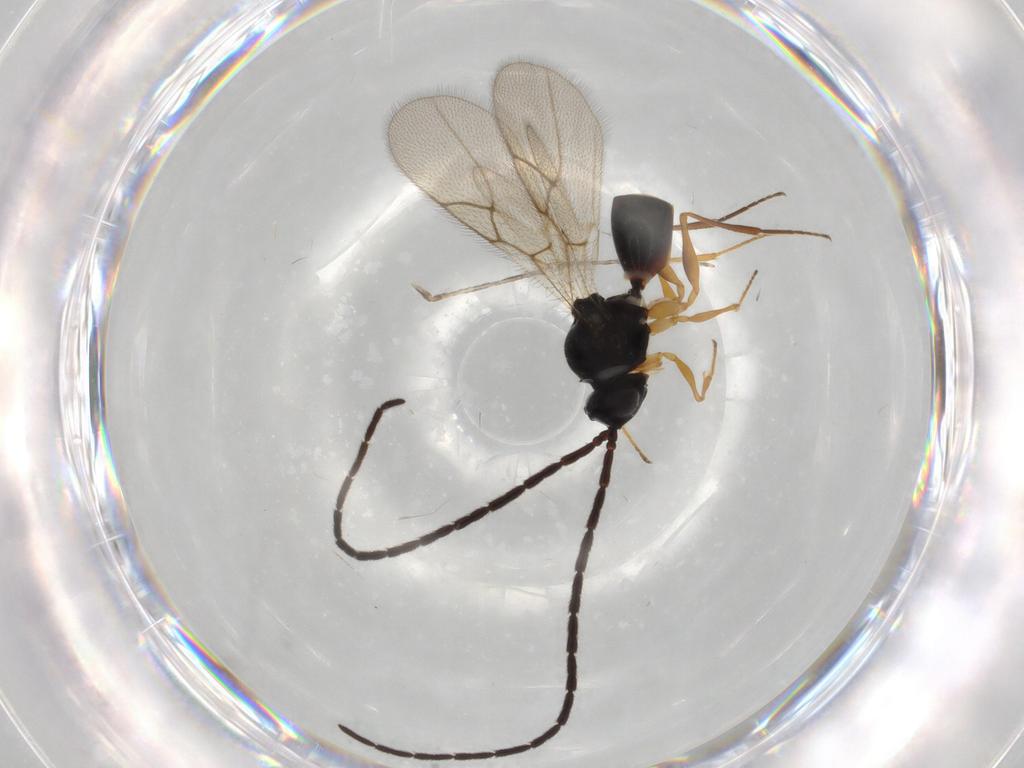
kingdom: Animalia
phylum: Arthropoda
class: Insecta
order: Hymenoptera
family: Figitidae
